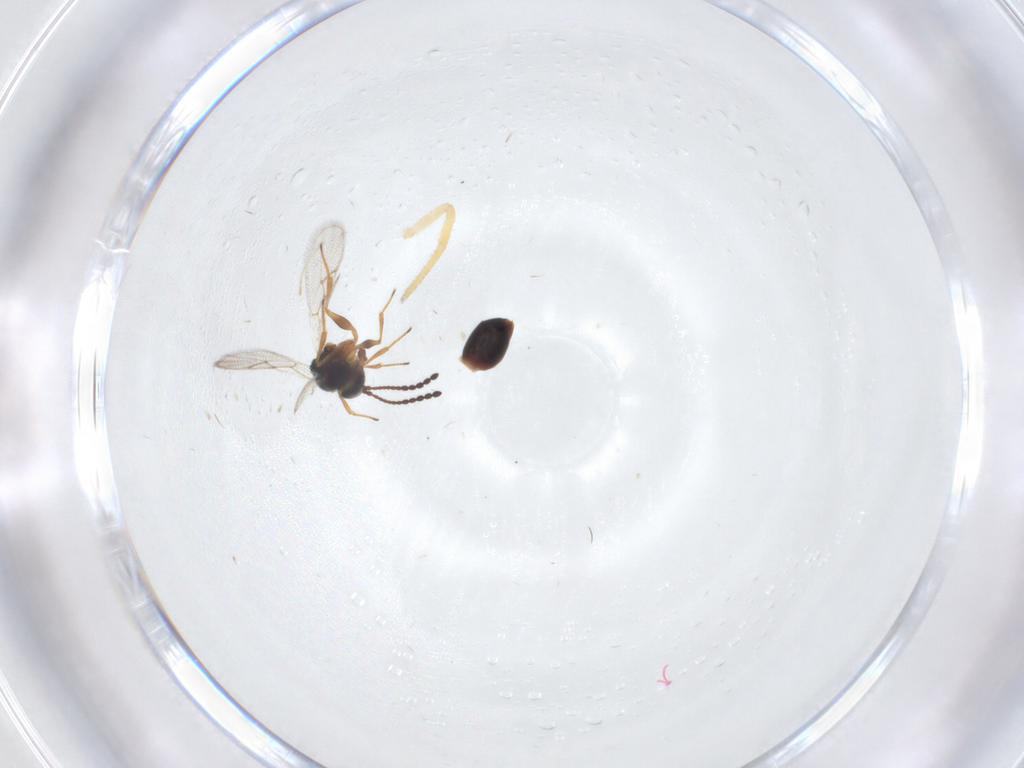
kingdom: Animalia
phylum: Arthropoda
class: Insecta
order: Hymenoptera
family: Figitidae
